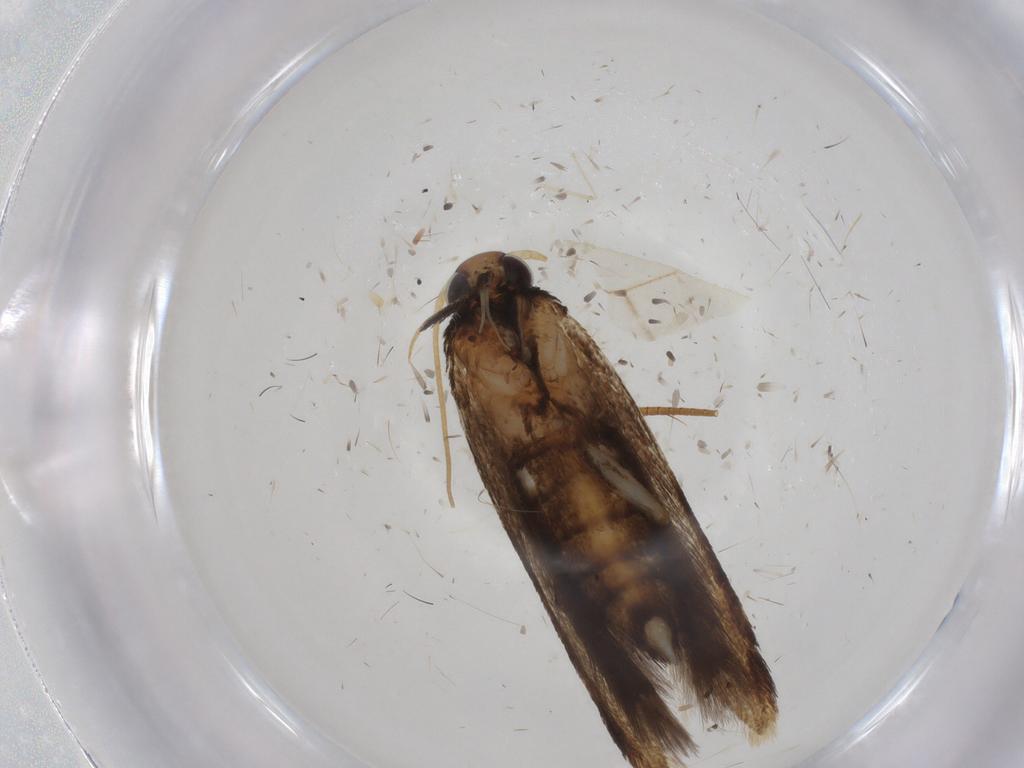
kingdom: Animalia
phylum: Arthropoda
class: Insecta
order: Lepidoptera
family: Gelechiidae
